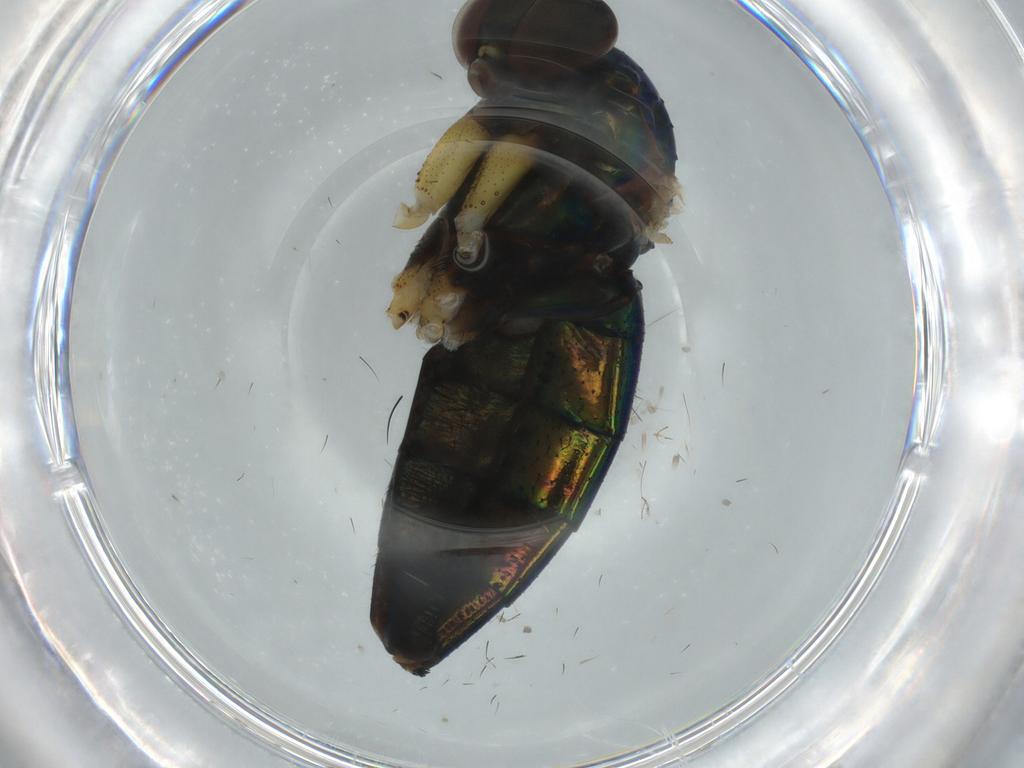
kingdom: Animalia
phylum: Arthropoda
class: Insecta
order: Diptera
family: Dolichopodidae
